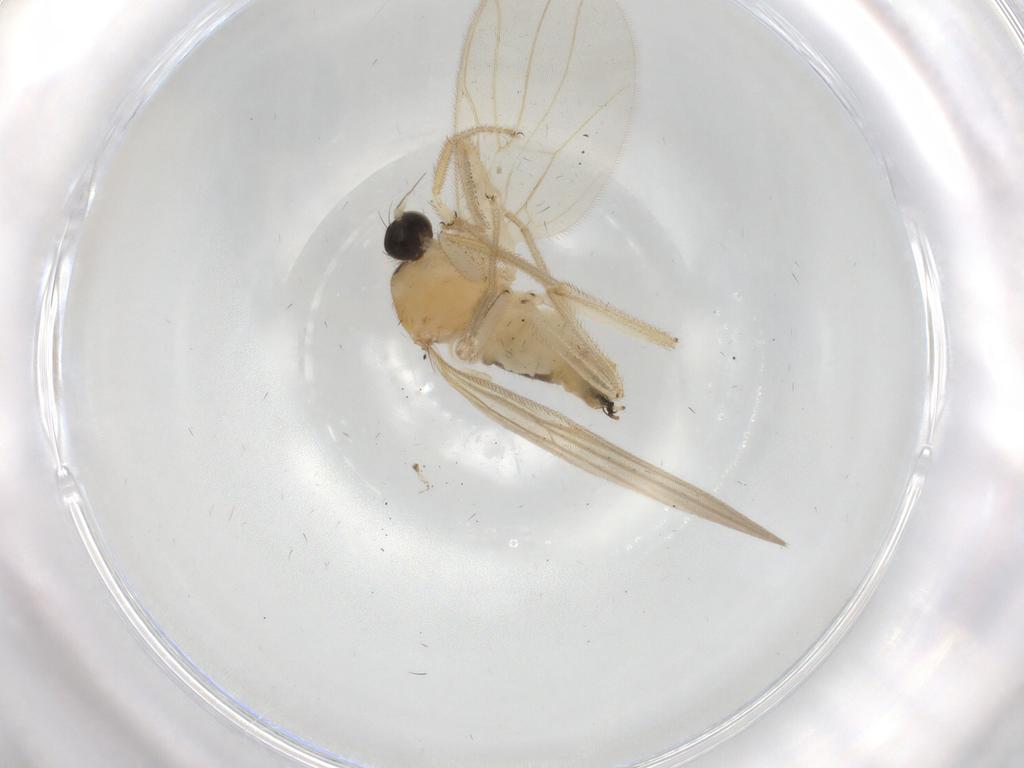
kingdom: Animalia
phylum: Arthropoda
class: Insecta
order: Diptera
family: Hybotidae
